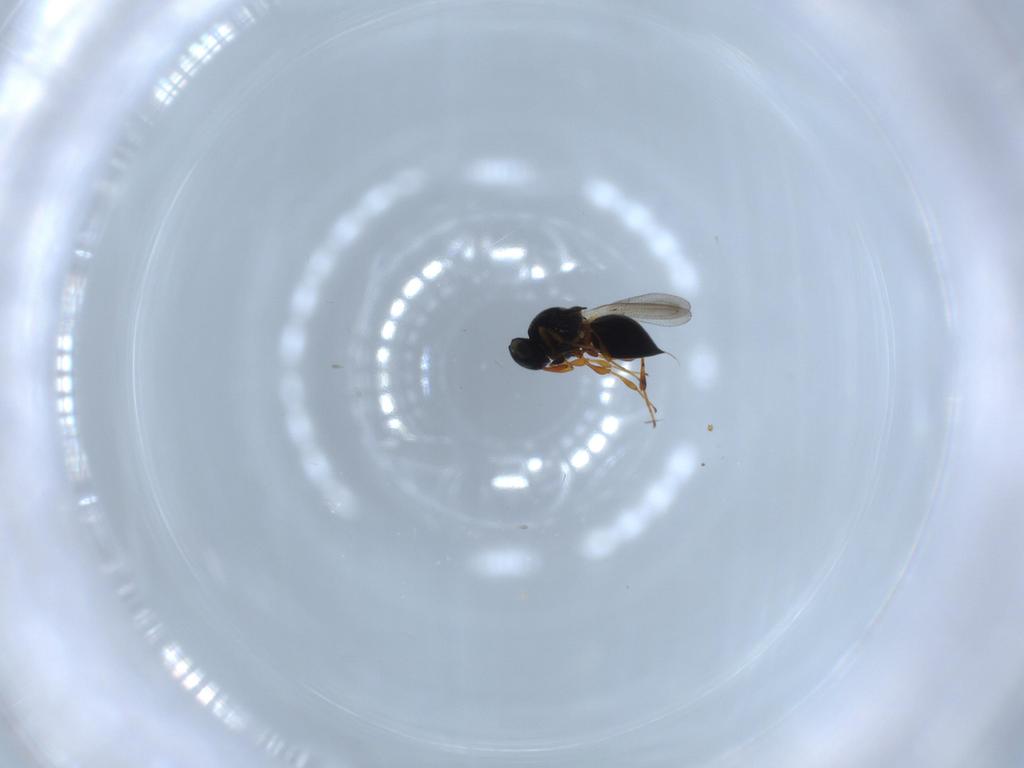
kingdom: Animalia
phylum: Arthropoda
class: Insecta
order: Hymenoptera
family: Platygastridae
